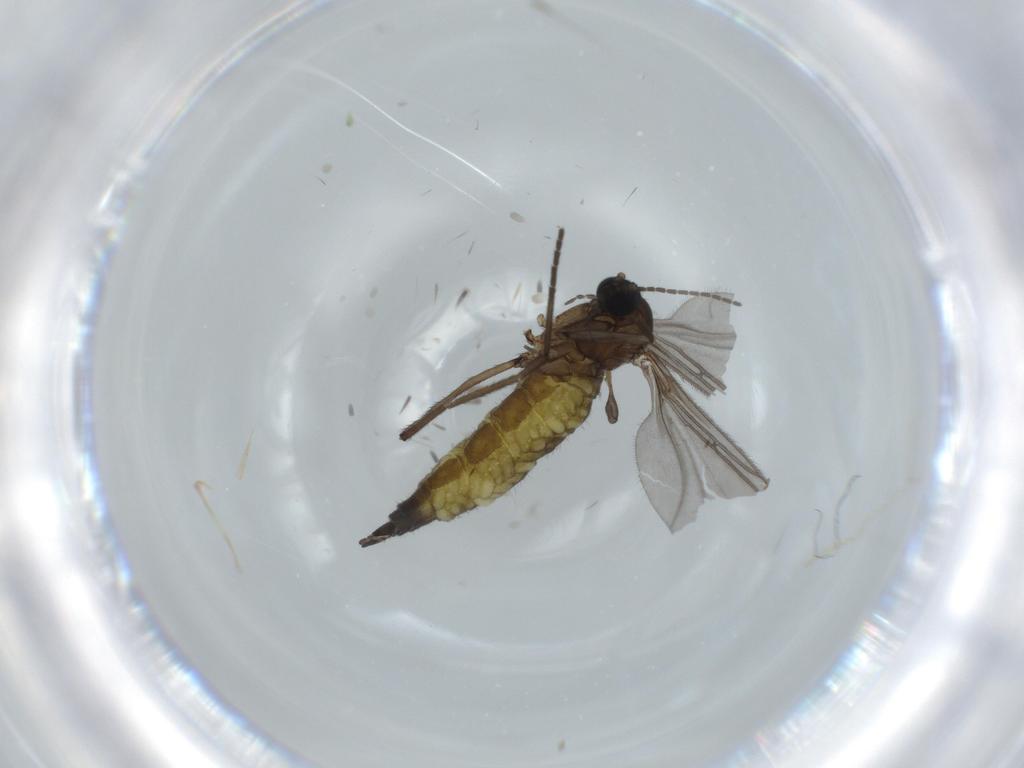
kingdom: Animalia
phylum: Arthropoda
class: Insecta
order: Diptera
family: Sciaridae
